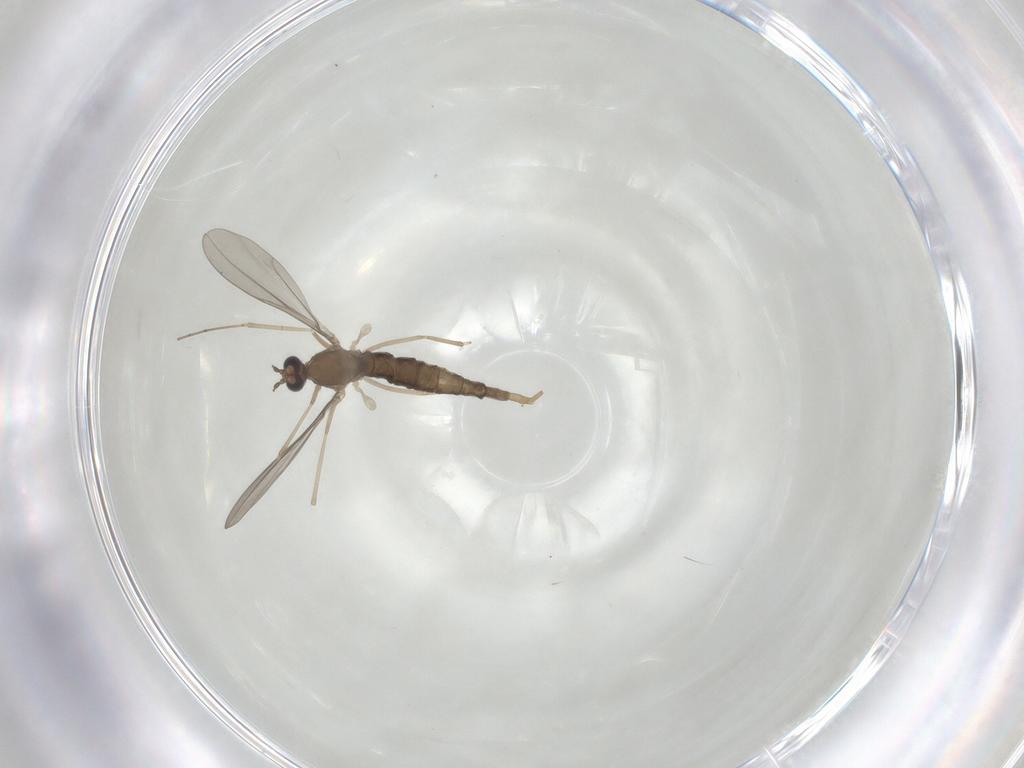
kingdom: Animalia
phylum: Arthropoda
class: Insecta
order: Diptera
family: Cecidomyiidae
